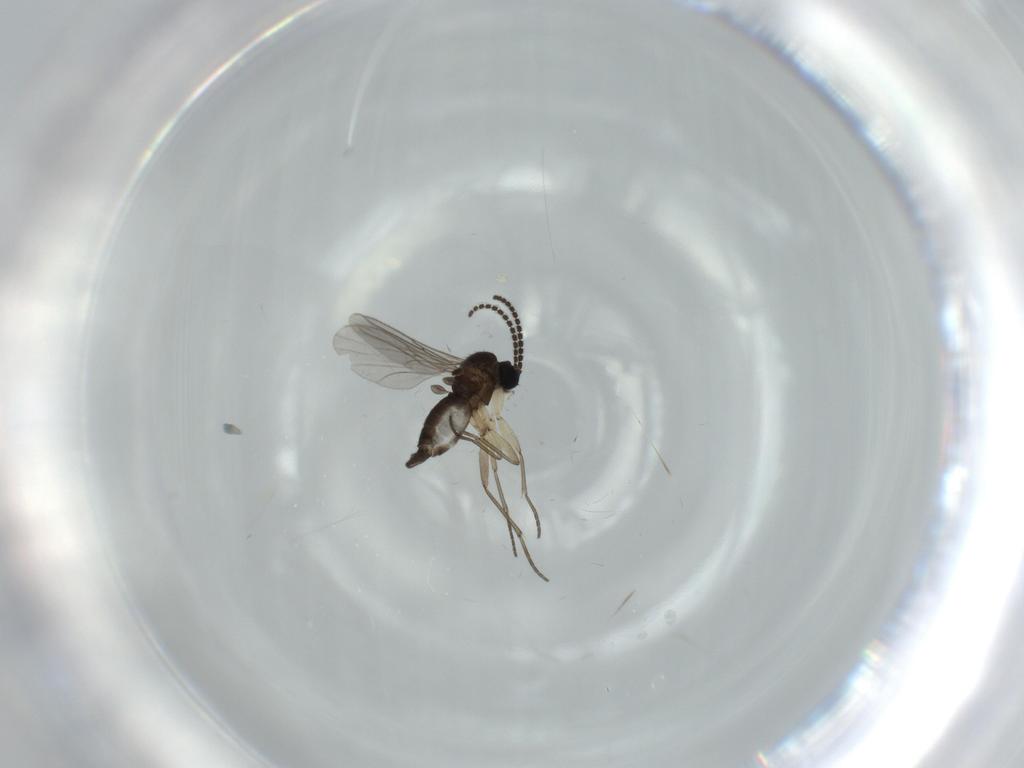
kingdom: Animalia
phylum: Arthropoda
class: Insecta
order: Diptera
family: Sciaridae
